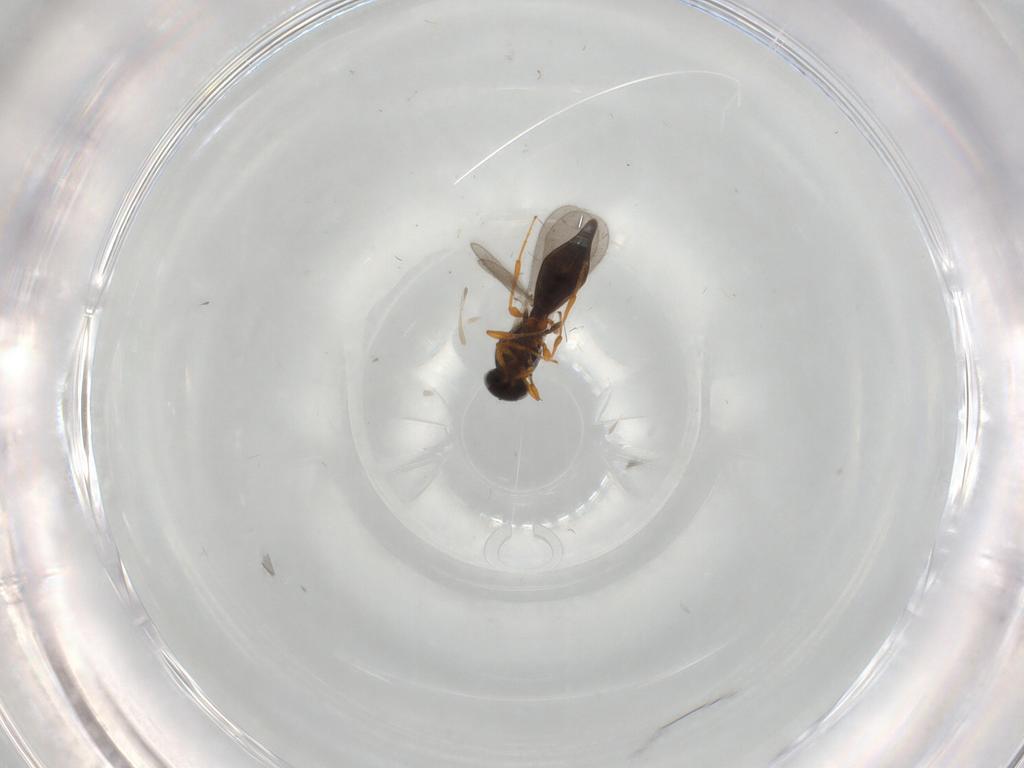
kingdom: Animalia
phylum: Arthropoda
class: Insecta
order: Hymenoptera
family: Platygastridae
